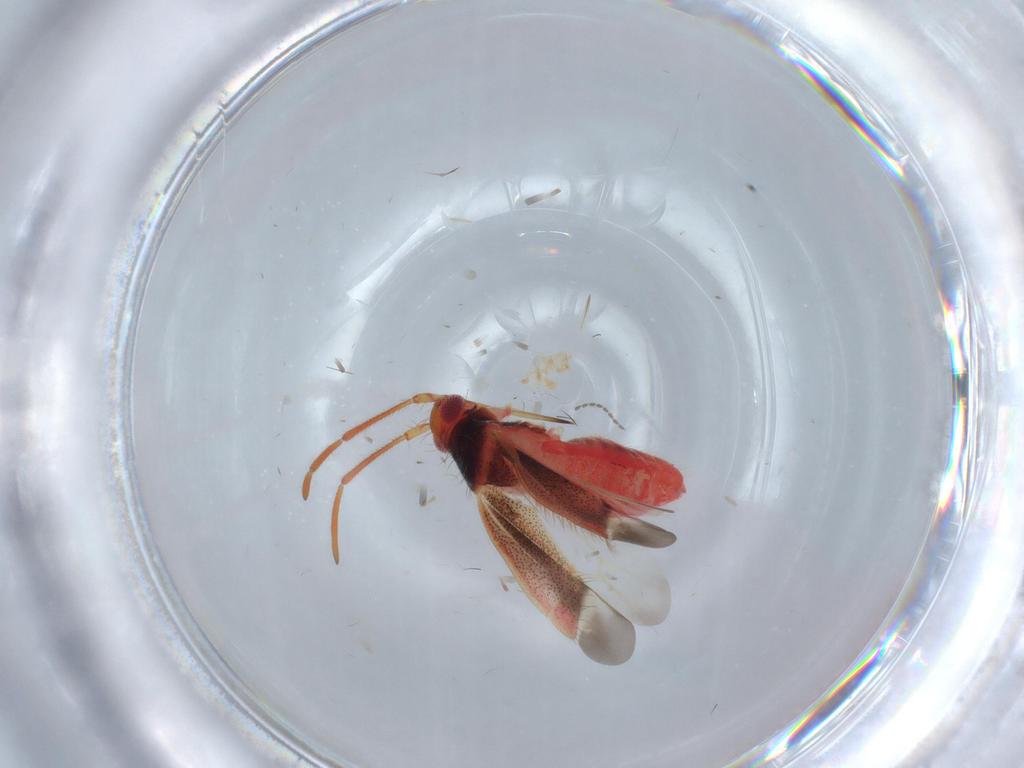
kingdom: Animalia
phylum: Arthropoda
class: Insecta
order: Hemiptera
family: Miridae
